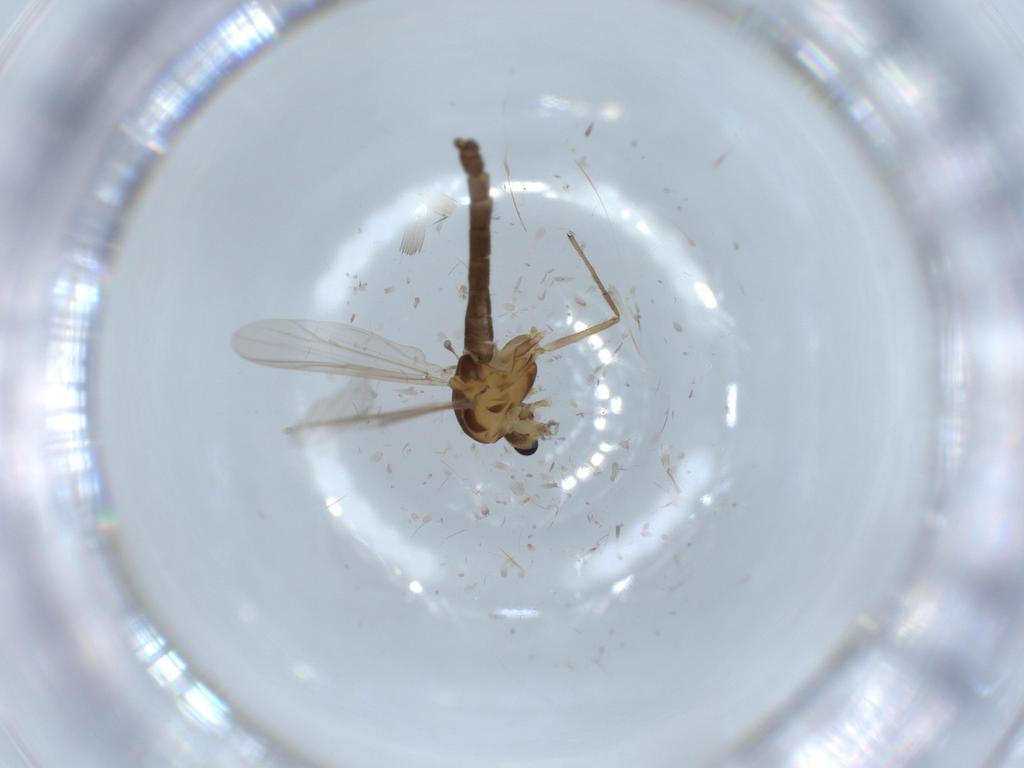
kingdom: Animalia
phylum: Arthropoda
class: Insecta
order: Diptera
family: Chironomidae
